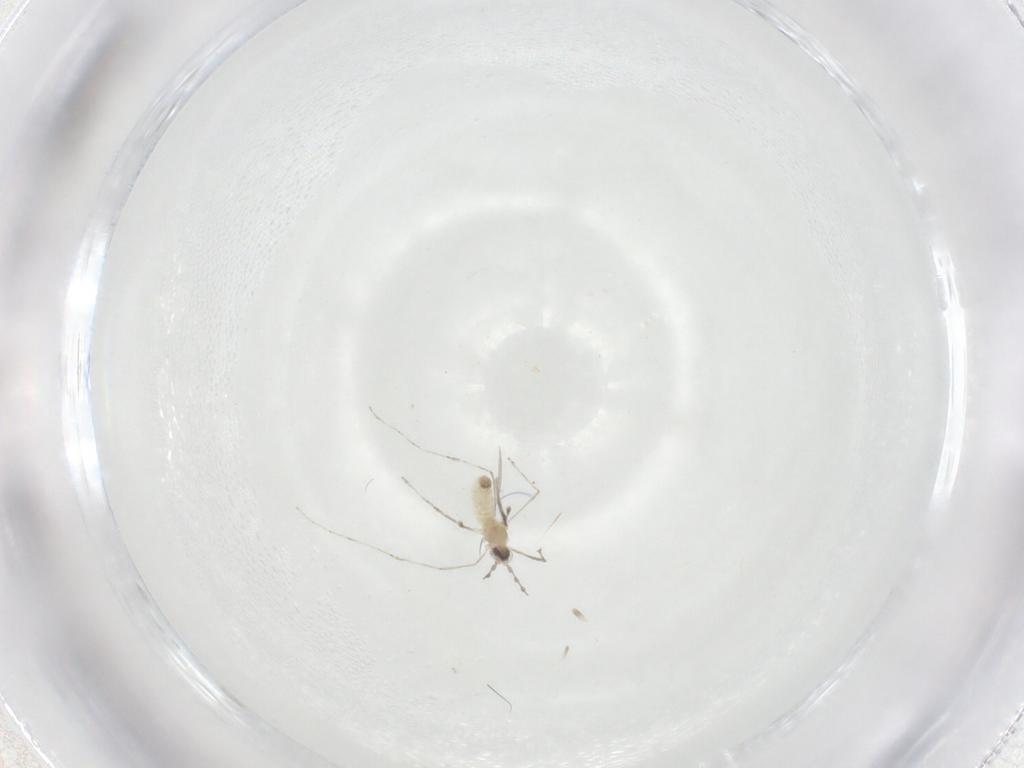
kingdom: Animalia
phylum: Arthropoda
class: Insecta
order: Diptera
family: Cecidomyiidae
